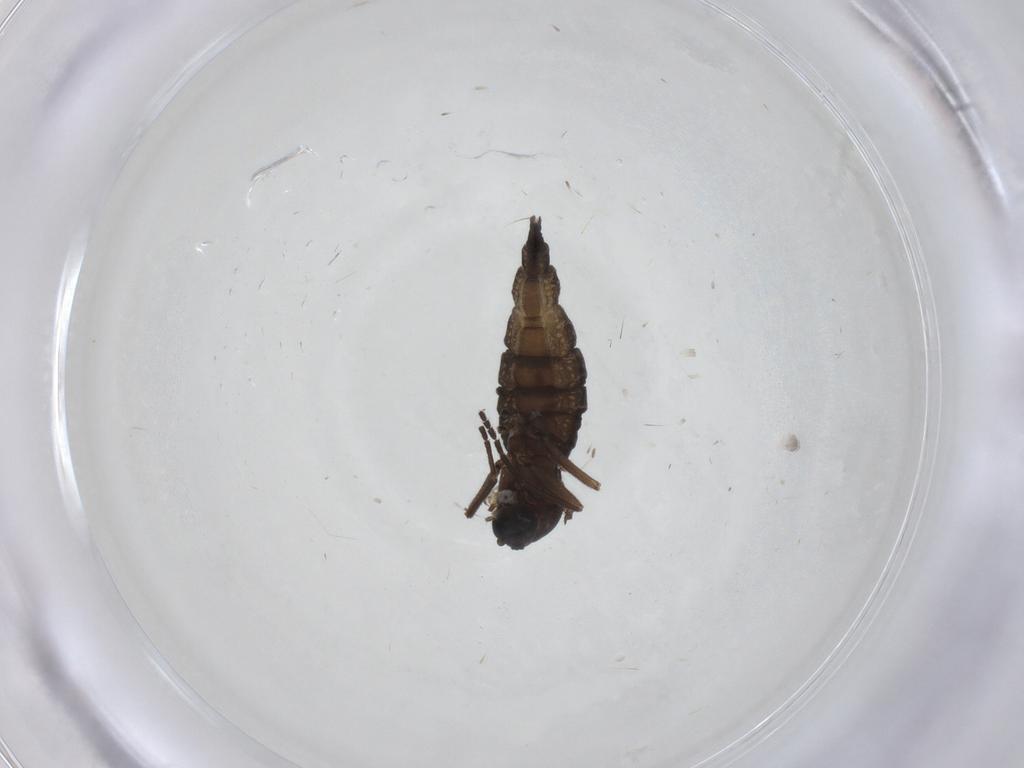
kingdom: Animalia
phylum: Arthropoda
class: Insecta
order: Diptera
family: Sciaridae
